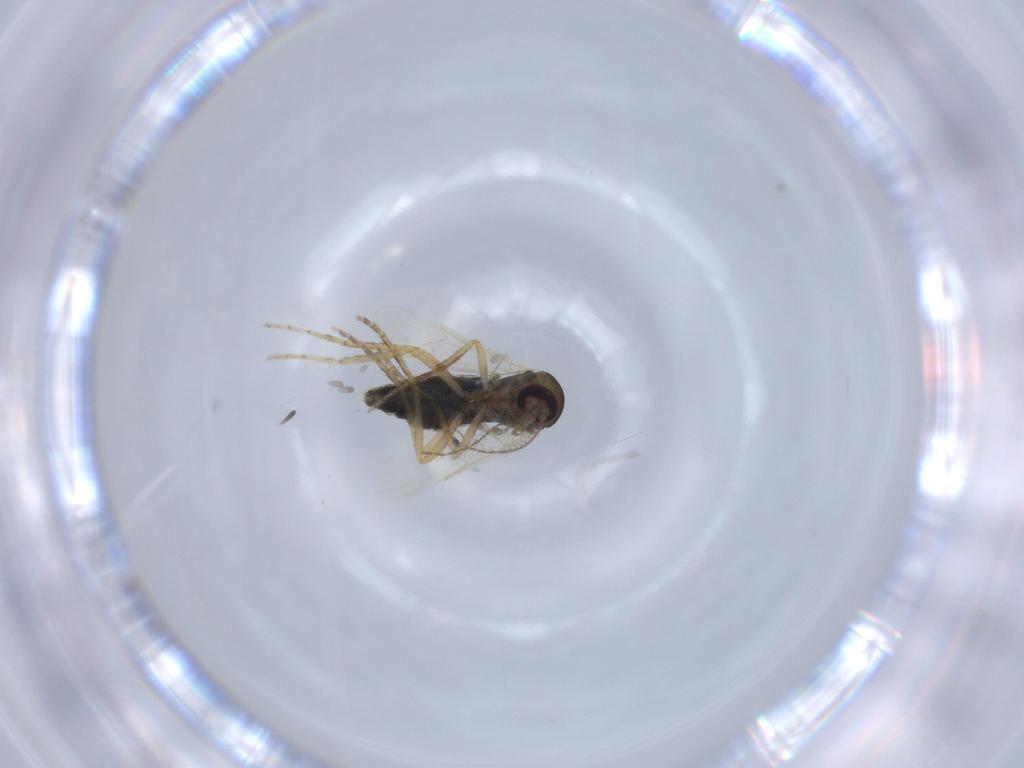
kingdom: Animalia
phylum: Arthropoda
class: Insecta
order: Diptera
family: Ceratopogonidae
